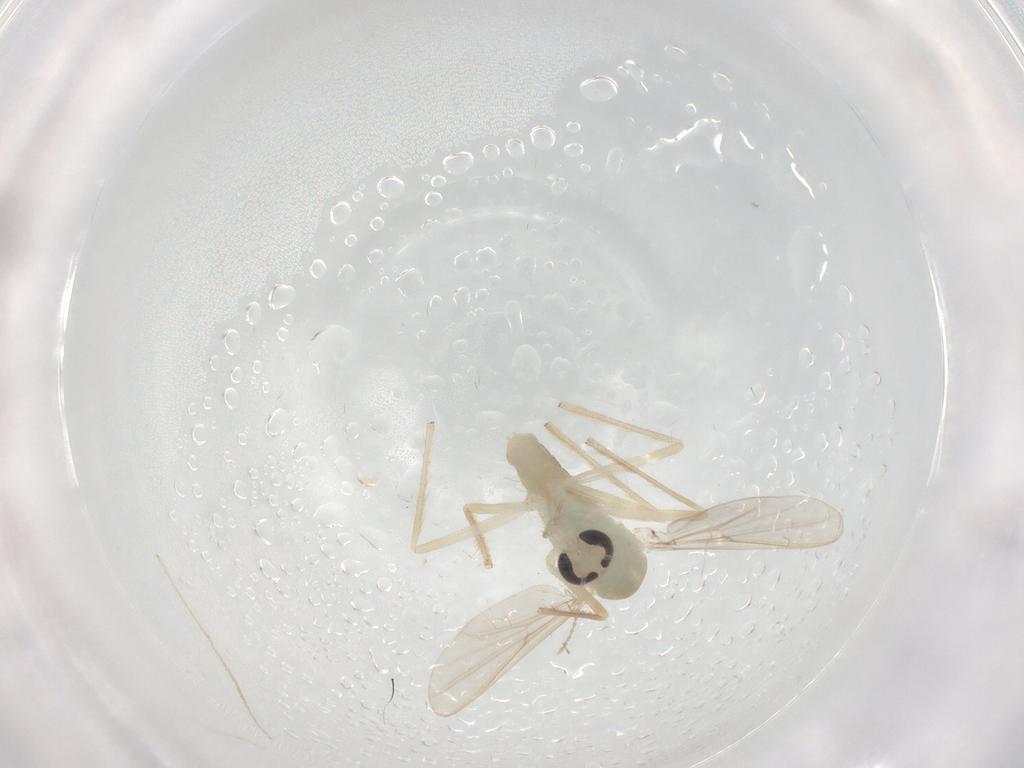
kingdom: Animalia
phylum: Arthropoda
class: Insecta
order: Diptera
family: Chironomidae
